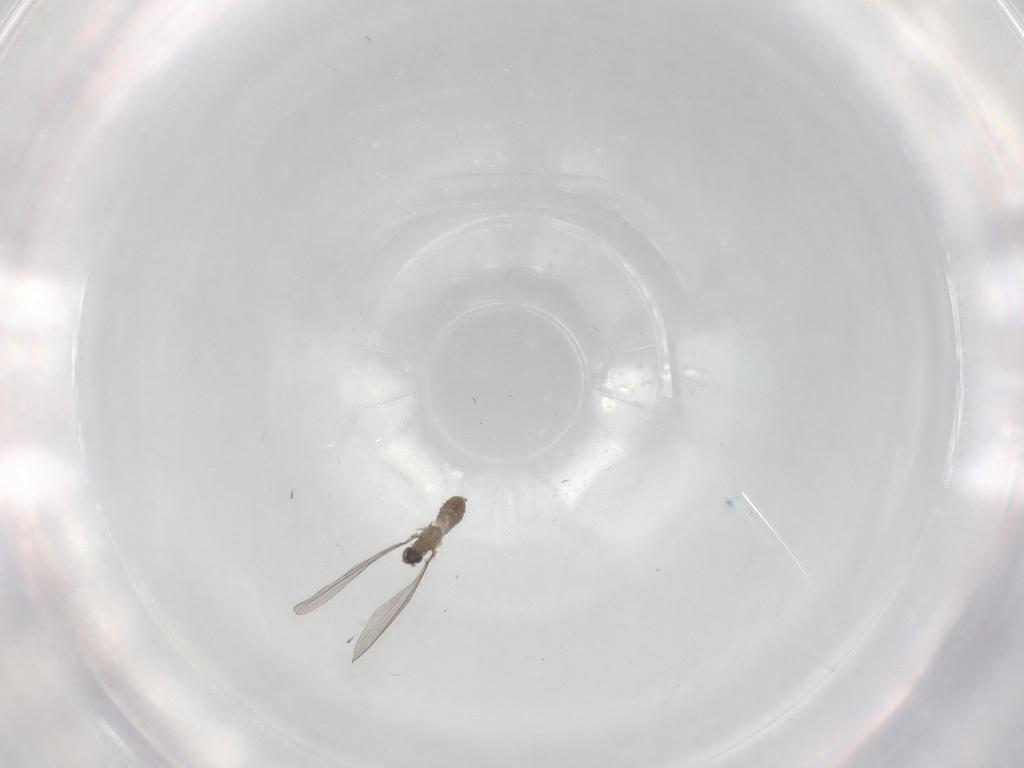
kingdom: Animalia
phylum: Arthropoda
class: Insecta
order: Diptera
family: Cecidomyiidae
